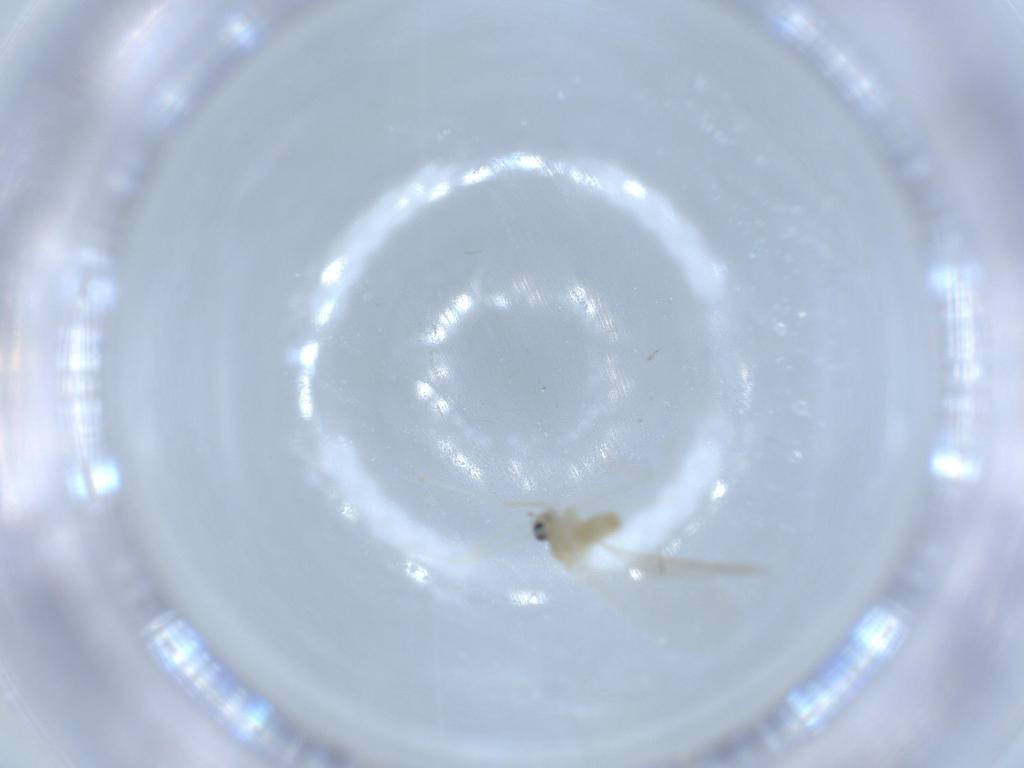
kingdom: Animalia
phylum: Arthropoda
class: Insecta
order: Diptera
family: Cecidomyiidae
